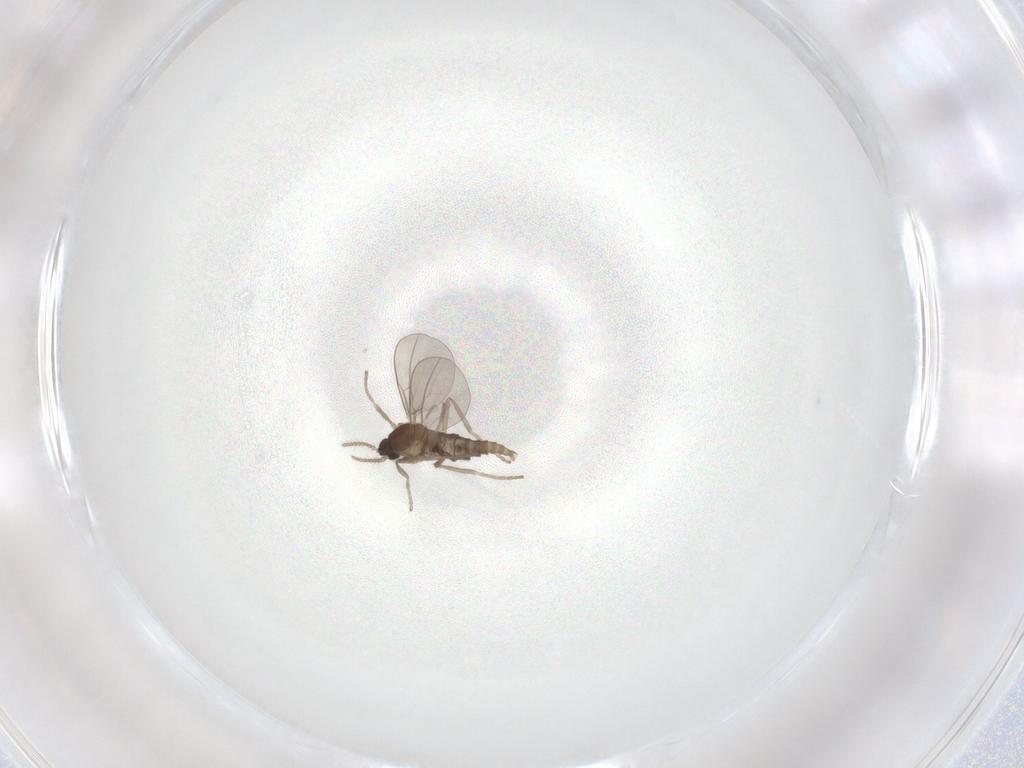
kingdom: Animalia
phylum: Arthropoda
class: Insecta
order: Diptera
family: Cecidomyiidae
